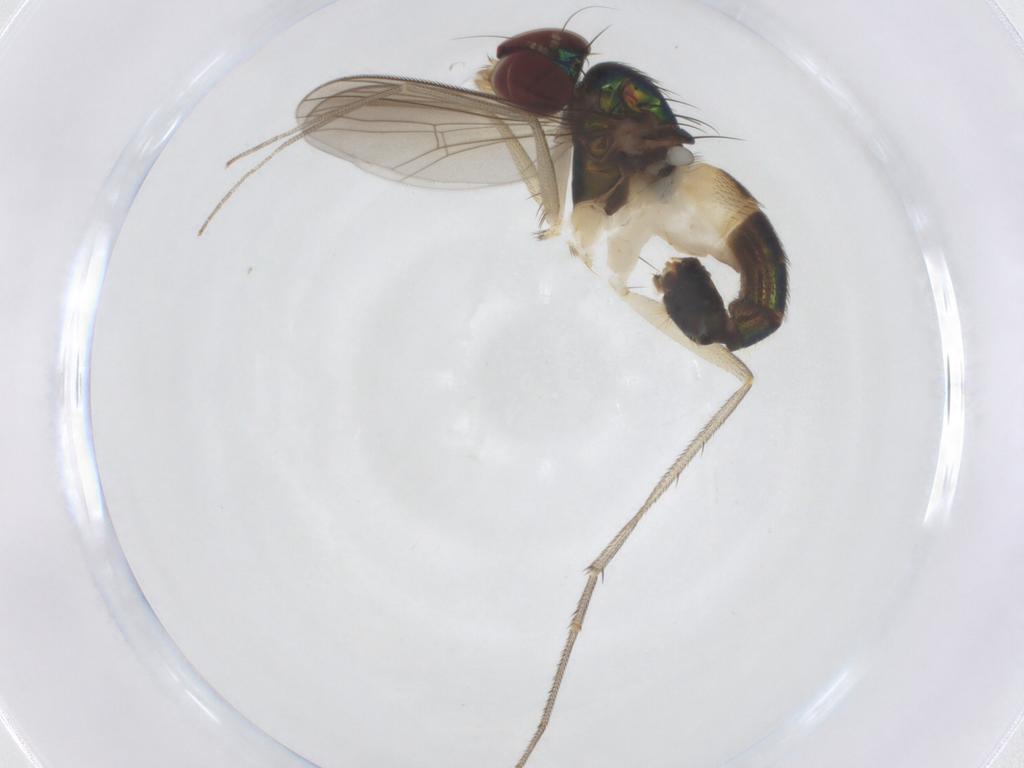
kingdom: Animalia
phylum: Arthropoda
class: Insecta
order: Diptera
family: Dolichopodidae
